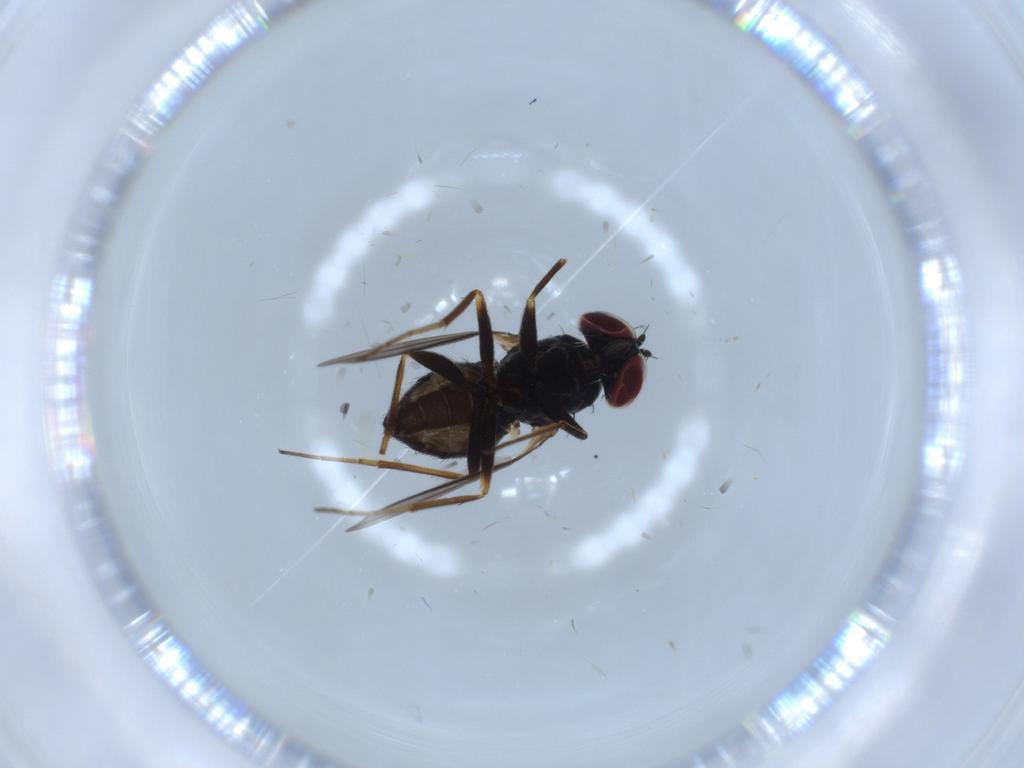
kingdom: Animalia
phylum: Arthropoda
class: Insecta
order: Diptera
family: Dolichopodidae
